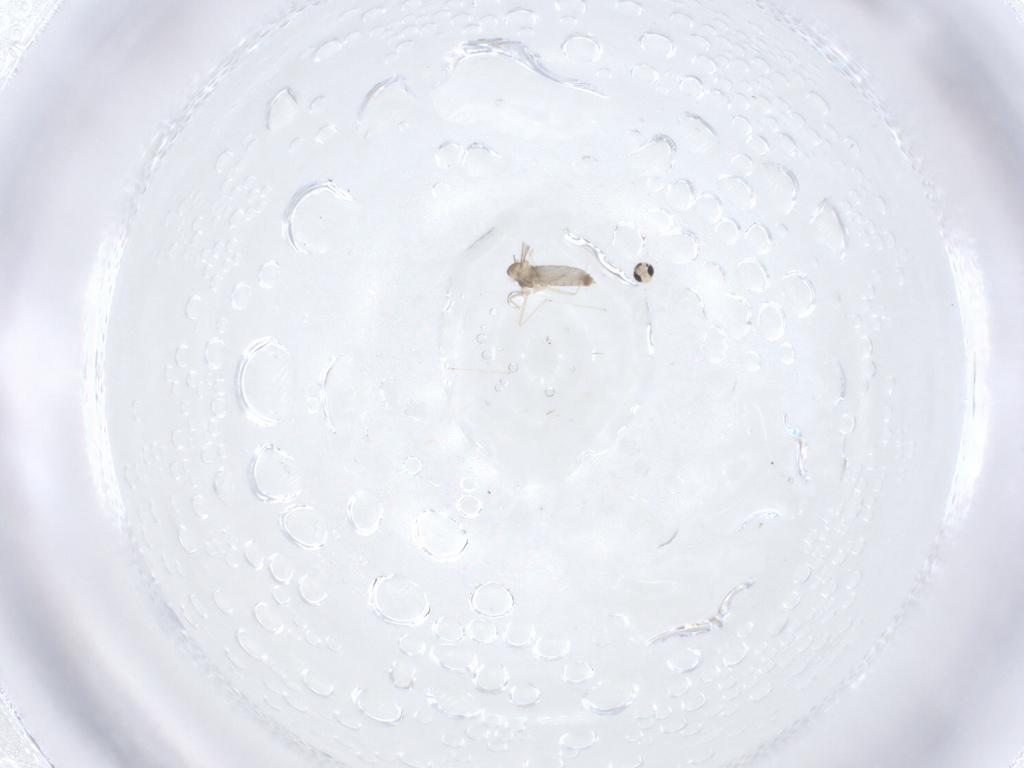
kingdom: Animalia
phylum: Arthropoda
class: Insecta
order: Diptera
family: Cecidomyiidae
